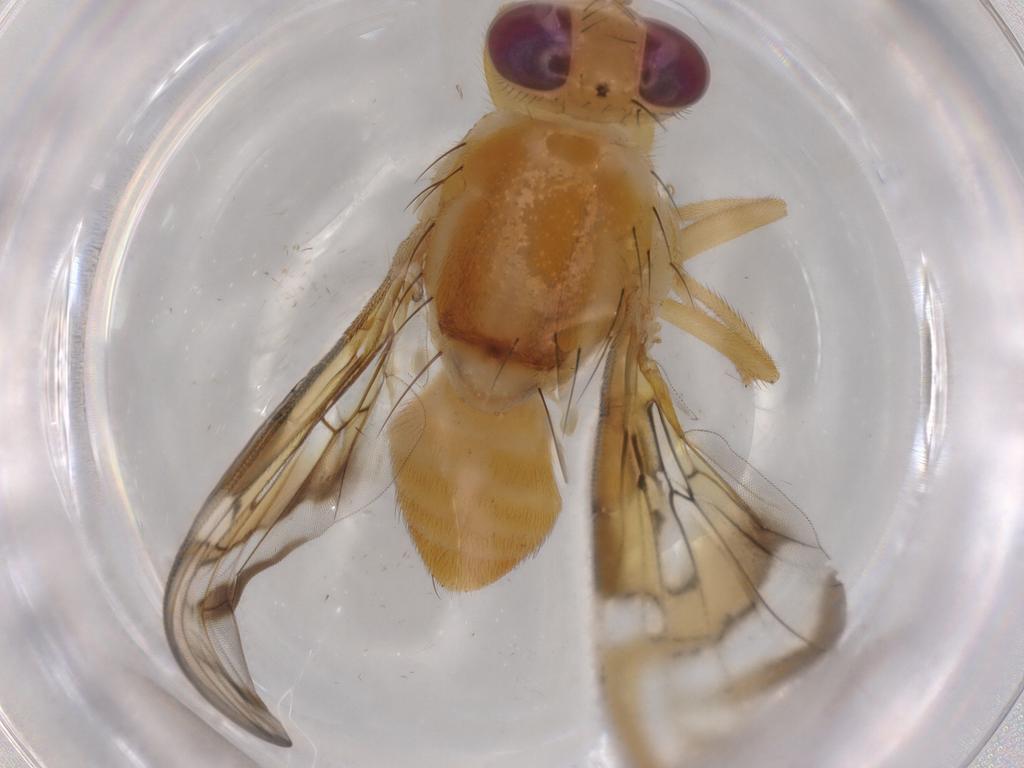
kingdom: Animalia
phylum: Arthropoda
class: Insecta
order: Diptera
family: Tephritidae
